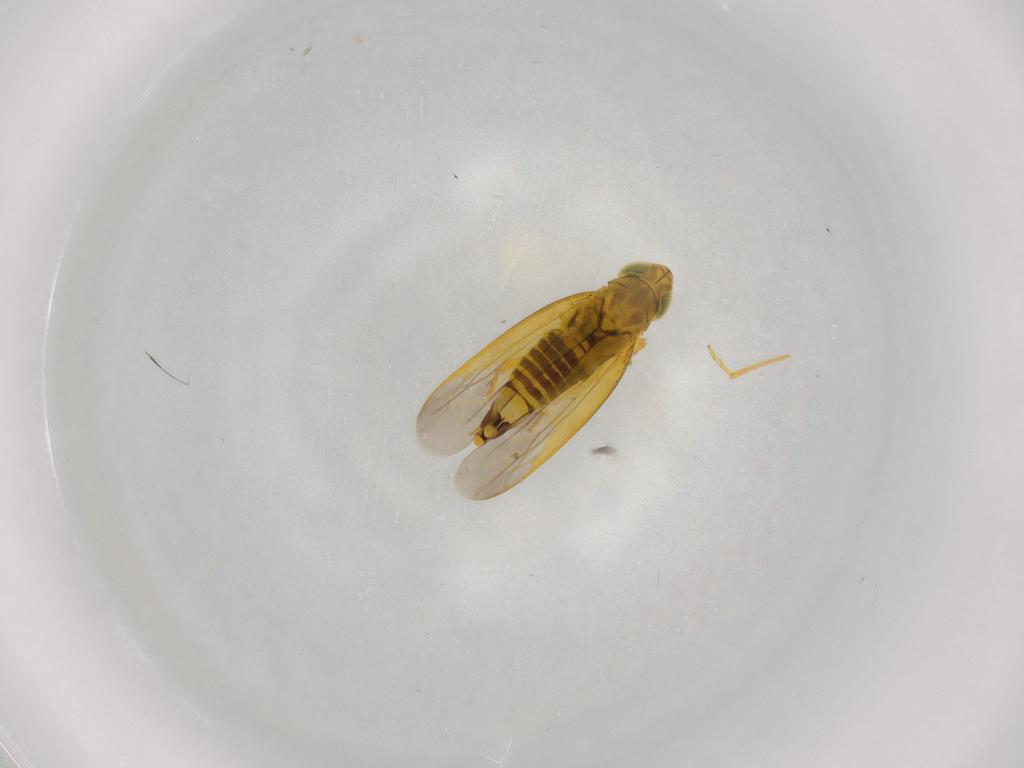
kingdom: Animalia
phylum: Arthropoda
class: Insecta
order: Hemiptera
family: Cicadellidae
